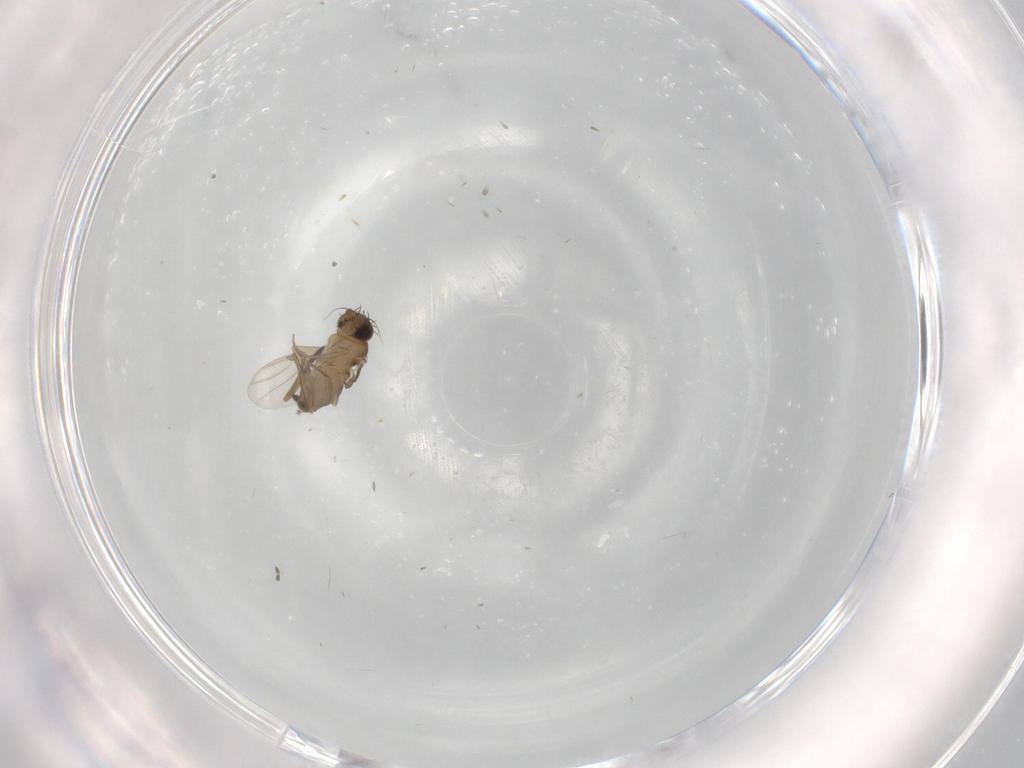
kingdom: Animalia
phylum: Arthropoda
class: Insecta
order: Diptera
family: Phoridae
